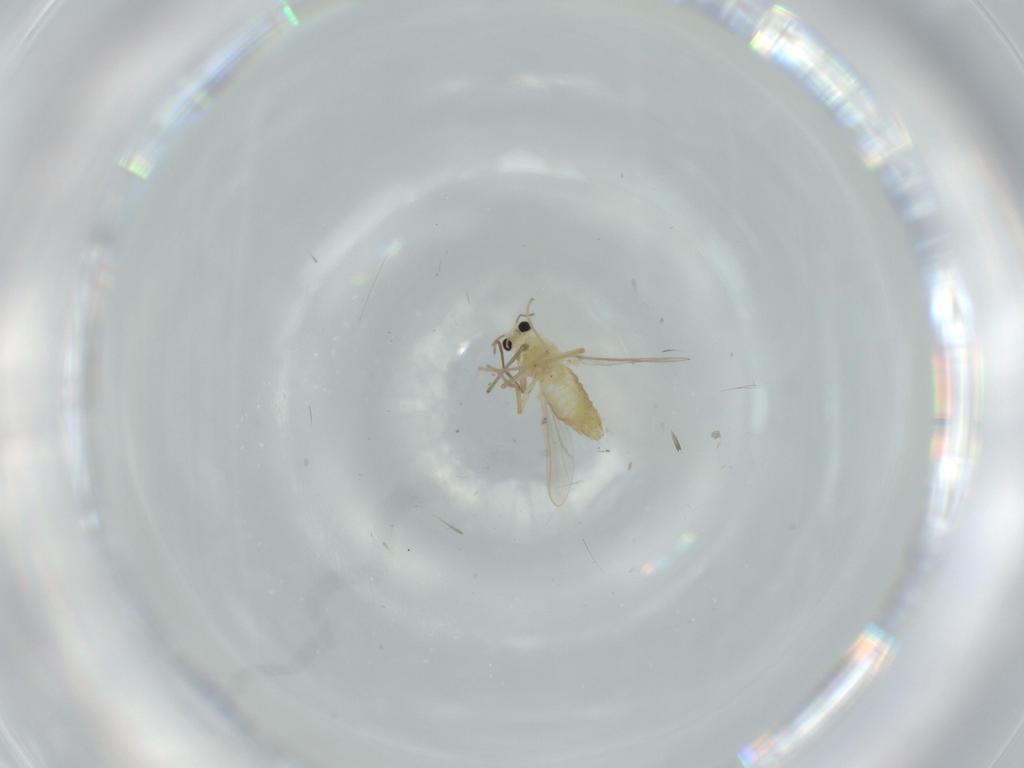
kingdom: Animalia
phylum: Arthropoda
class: Insecta
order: Diptera
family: Chironomidae
